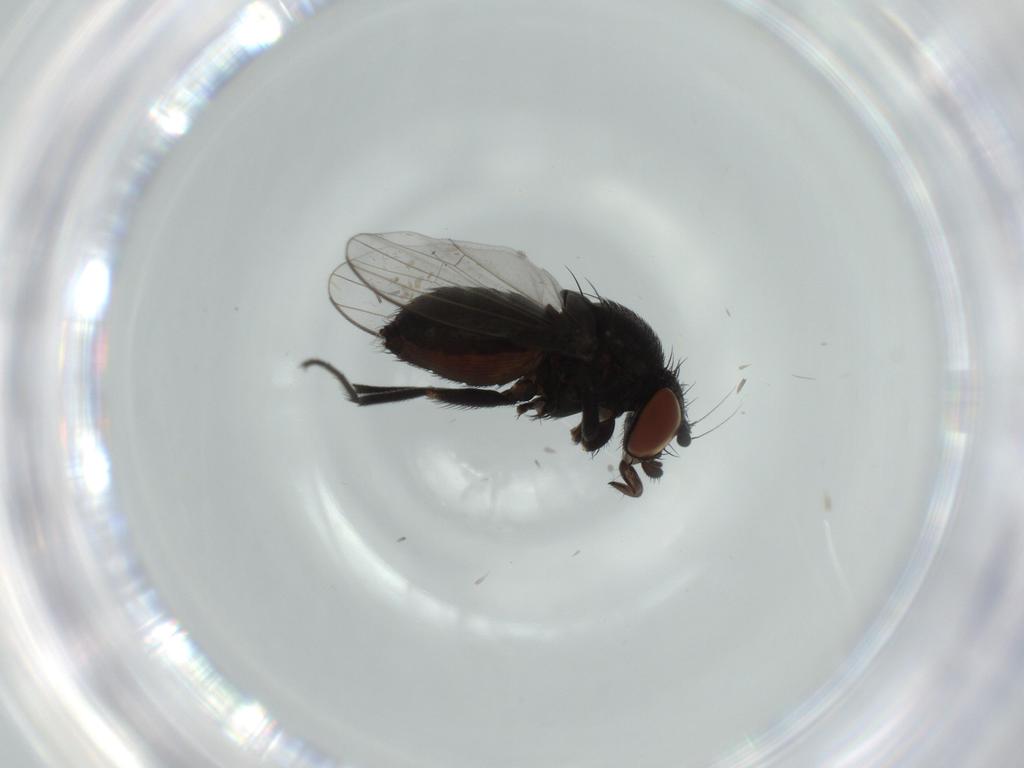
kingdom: Animalia
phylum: Arthropoda
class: Insecta
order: Diptera
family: Milichiidae
